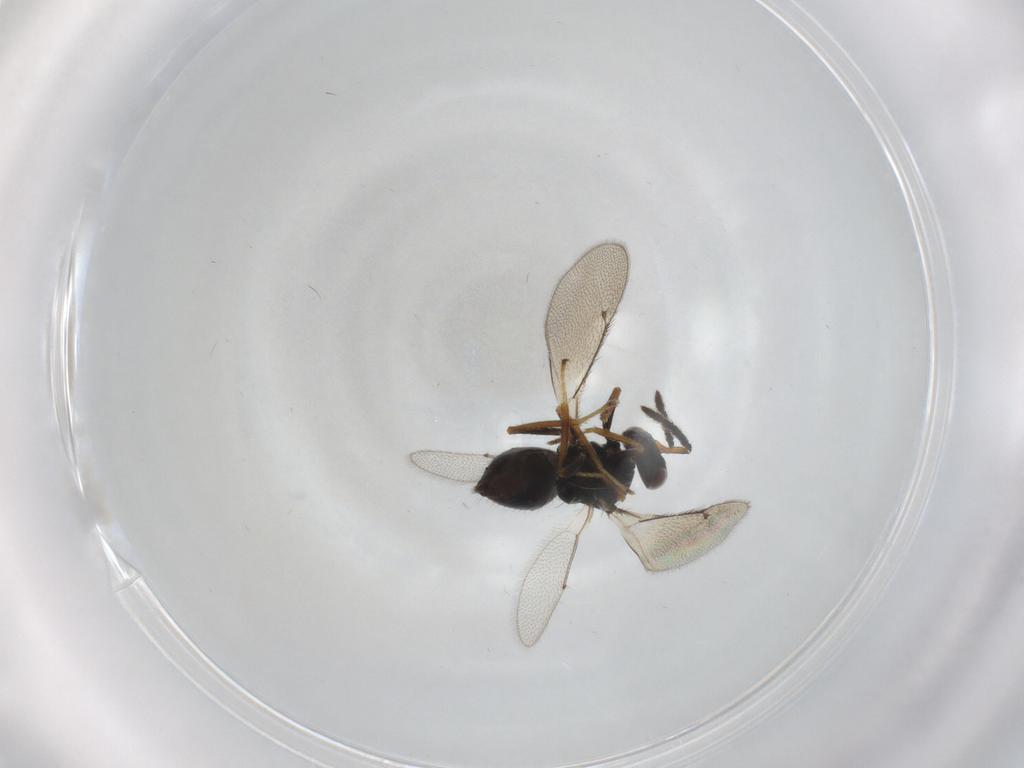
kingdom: Animalia
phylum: Arthropoda
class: Insecta
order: Hymenoptera
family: Eulophidae
